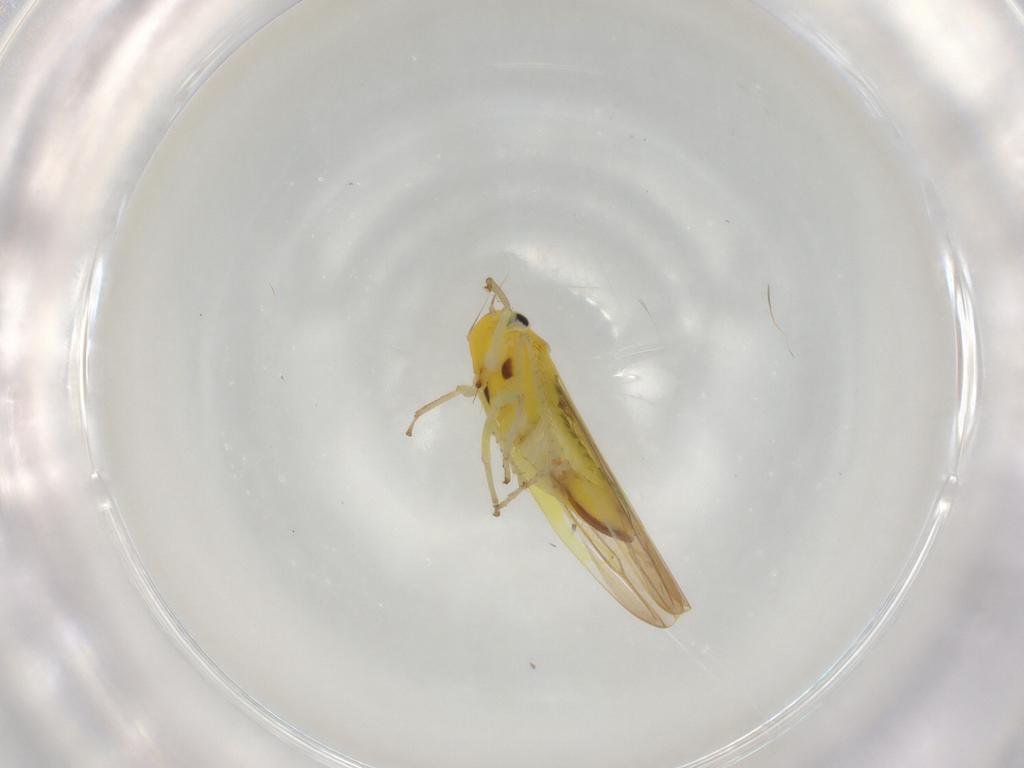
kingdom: Animalia
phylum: Arthropoda
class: Insecta
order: Hemiptera
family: Cicadellidae
